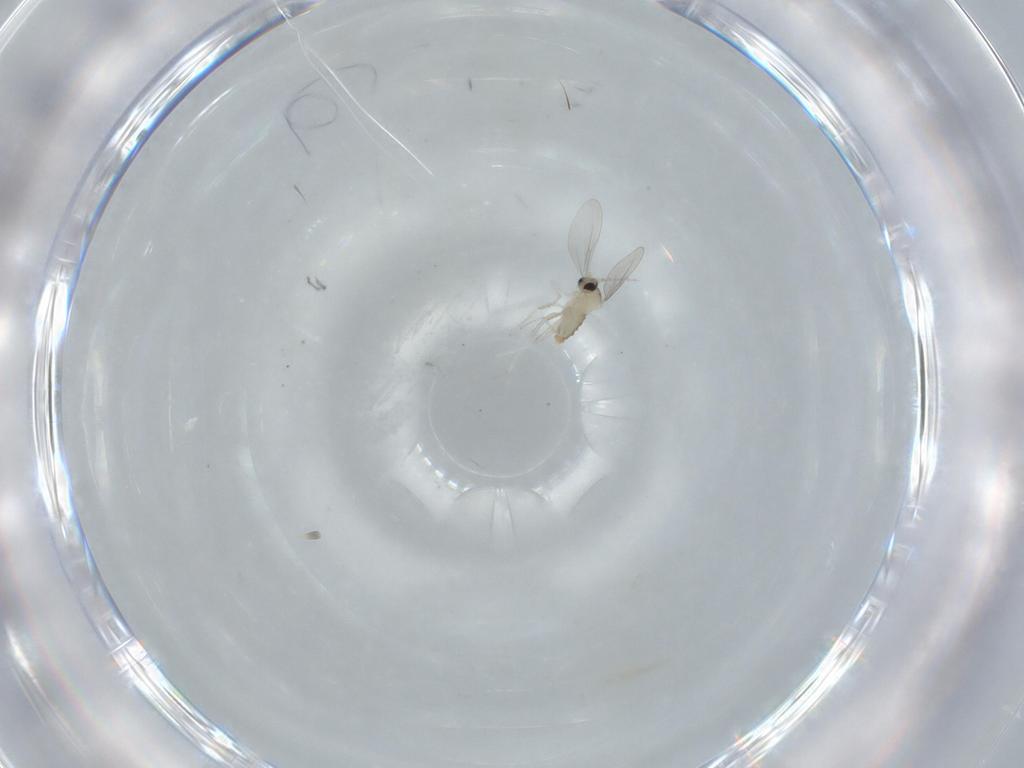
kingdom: Animalia
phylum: Arthropoda
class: Insecta
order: Diptera
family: Cecidomyiidae
